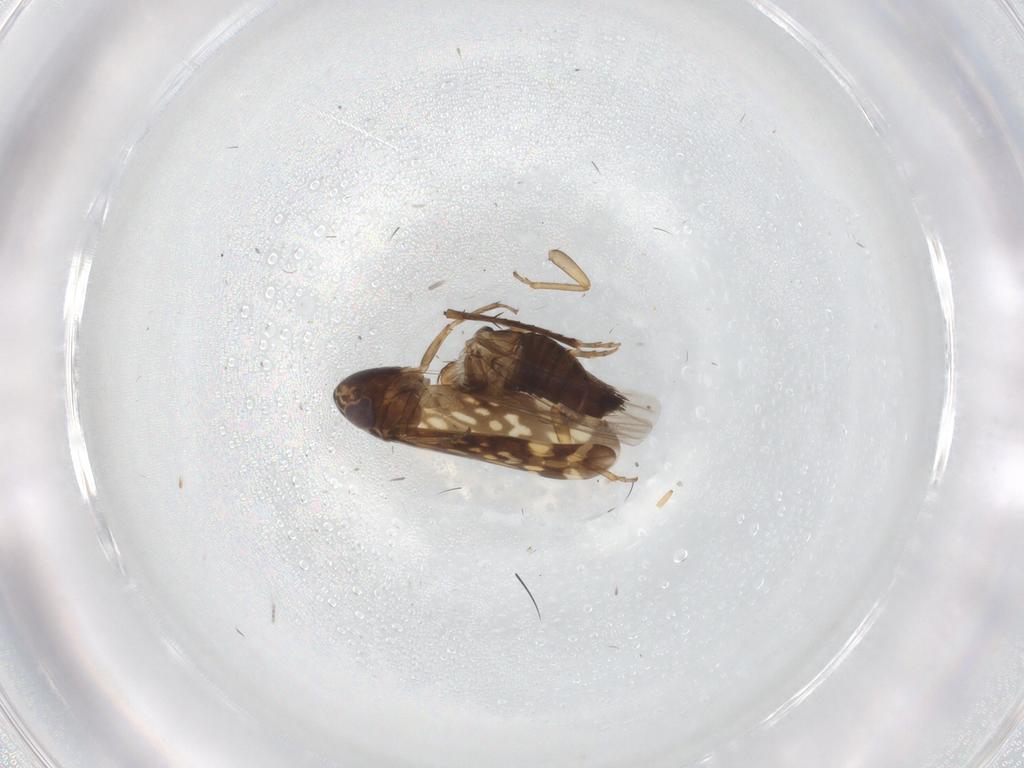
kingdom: Animalia
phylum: Arthropoda
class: Insecta
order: Hemiptera
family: Cicadellidae
